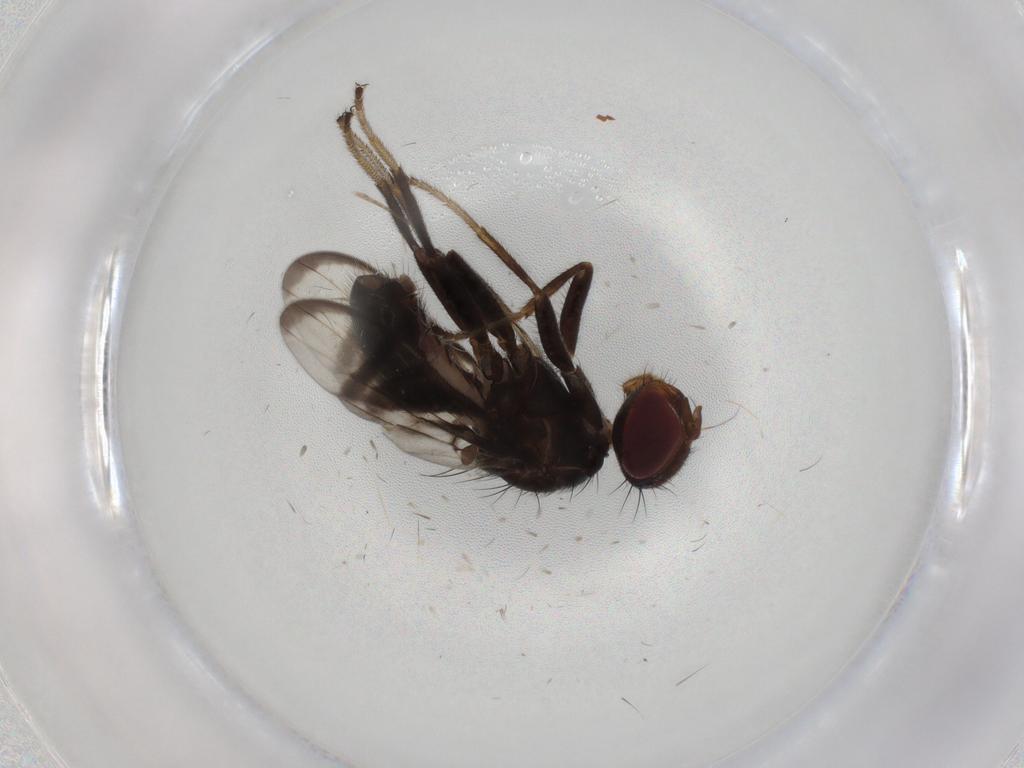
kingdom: Animalia
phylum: Arthropoda
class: Insecta
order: Diptera
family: Platystomatidae
